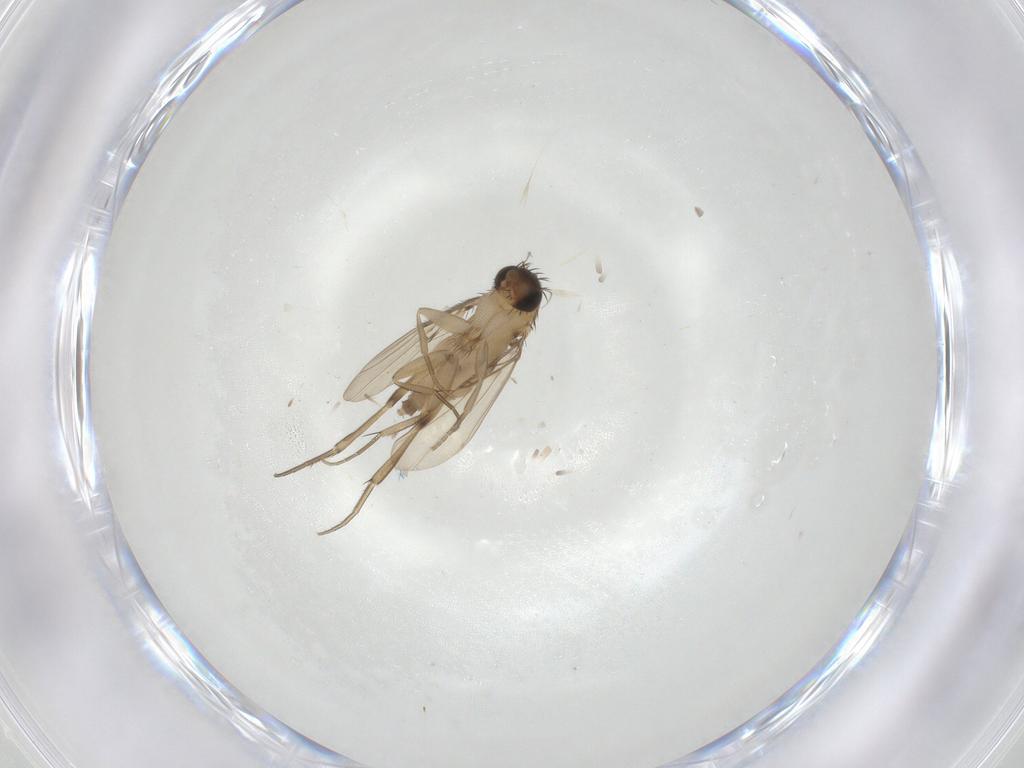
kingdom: Animalia
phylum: Arthropoda
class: Insecta
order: Diptera
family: Phoridae
